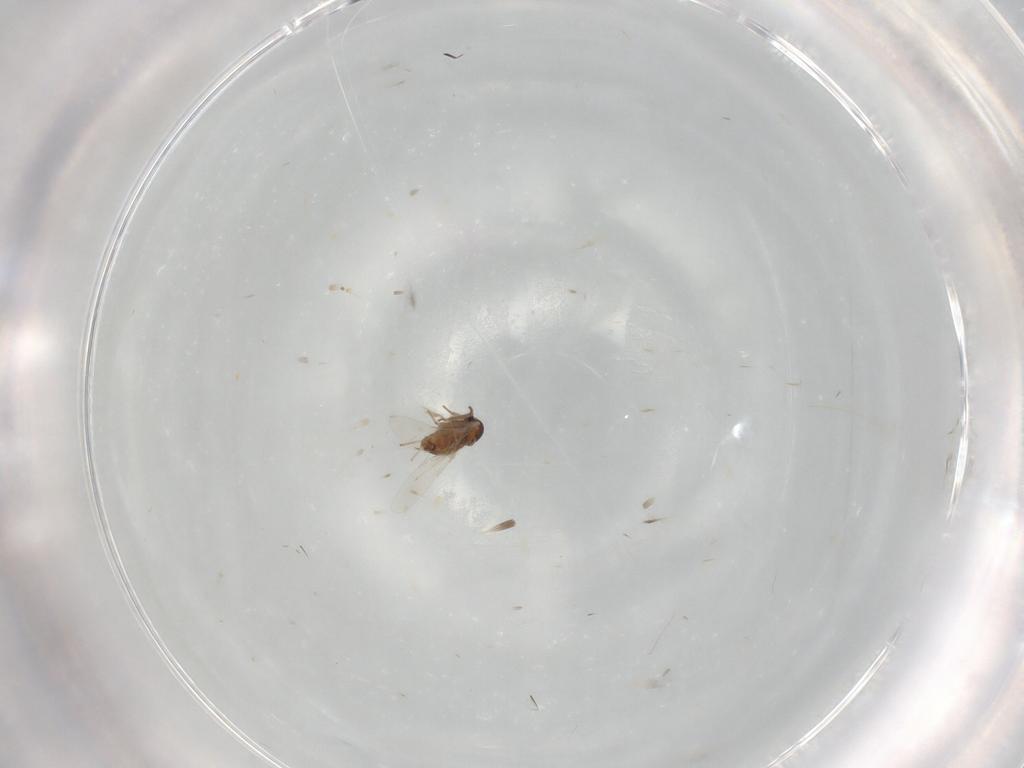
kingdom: Animalia
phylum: Arthropoda
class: Insecta
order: Diptera
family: Cecidomyiidae
